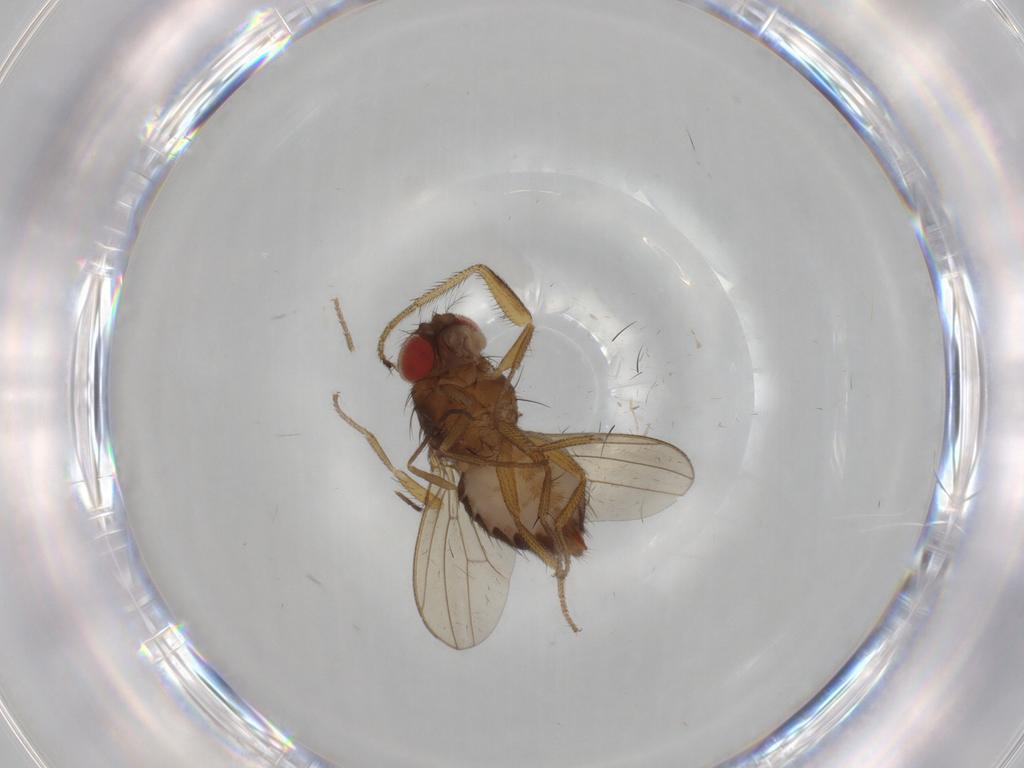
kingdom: Animalia
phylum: Arthropoda
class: Insecta
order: Diptera
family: Drosophilidae
